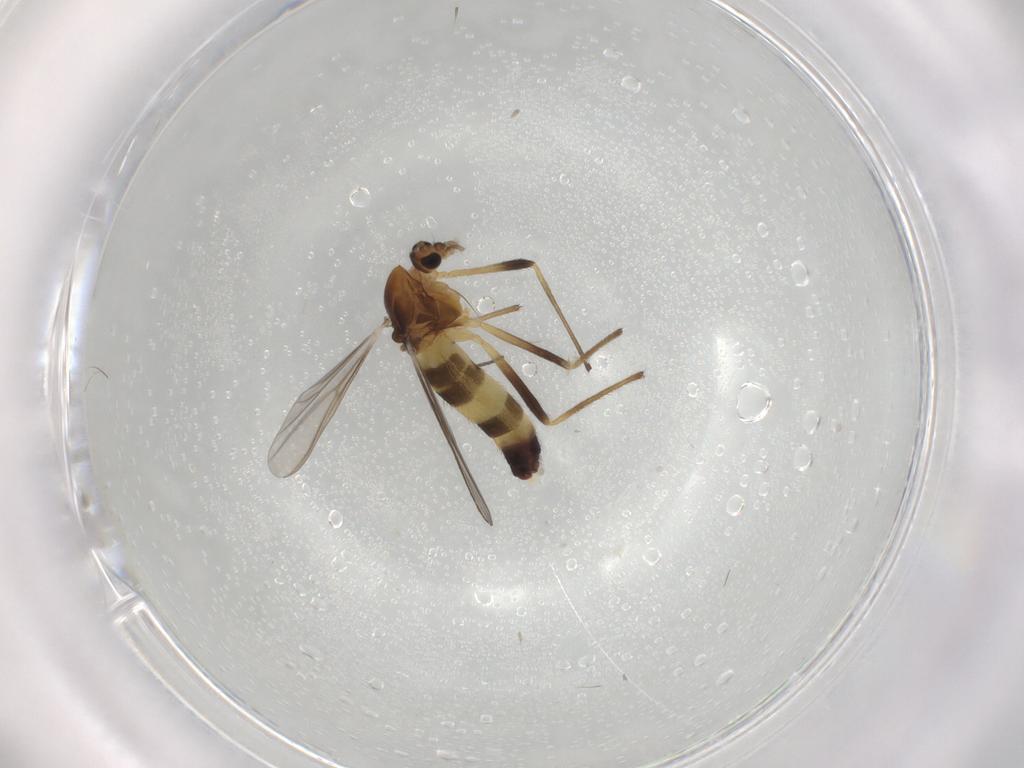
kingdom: Animalia
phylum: Arthropoda
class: Insecta
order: Diptera
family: Chironomidae
